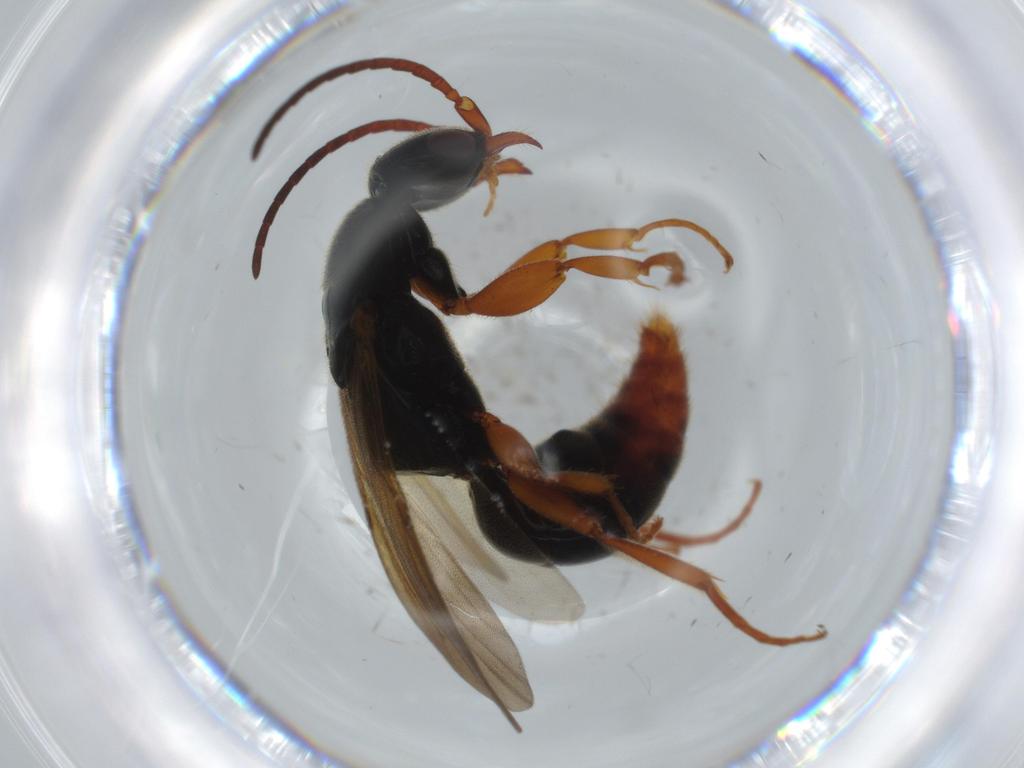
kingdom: Animalia
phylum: Arthropoda
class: Insecta
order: Hymenoptera
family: Bethylidae
